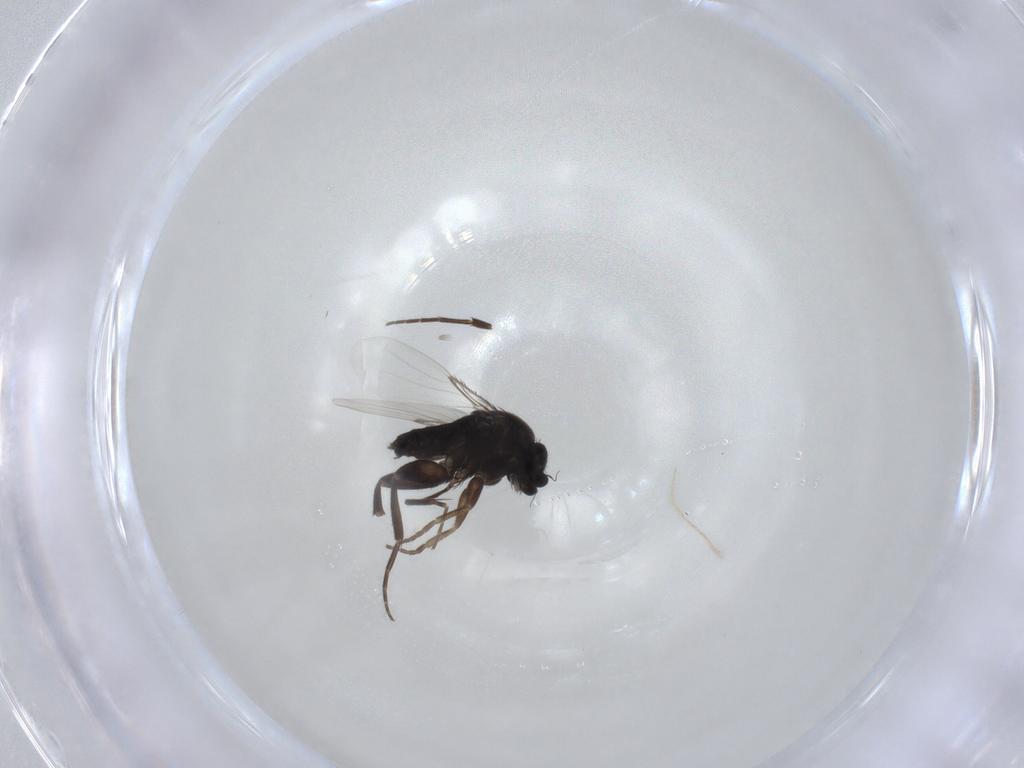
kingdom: Animalia
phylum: Arthropoda
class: Insecta
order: Diptera
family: Phoridae
